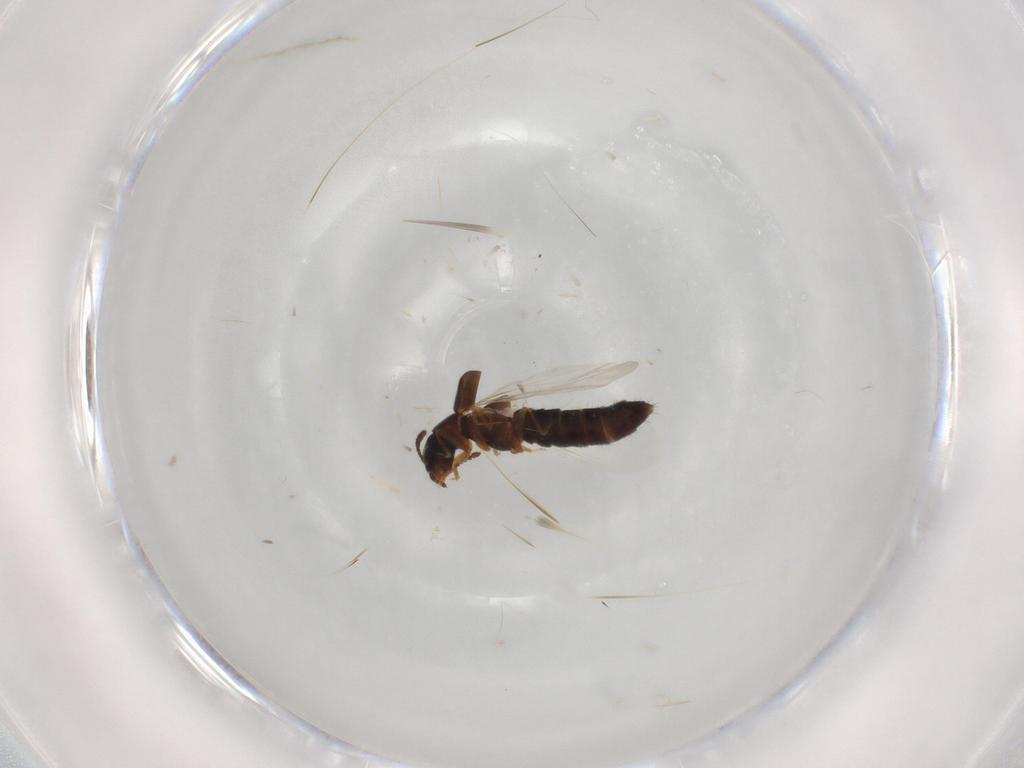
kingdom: Animalia
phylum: Arthropoda
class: Insecta
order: Coleoptera
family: Staphylinidae
